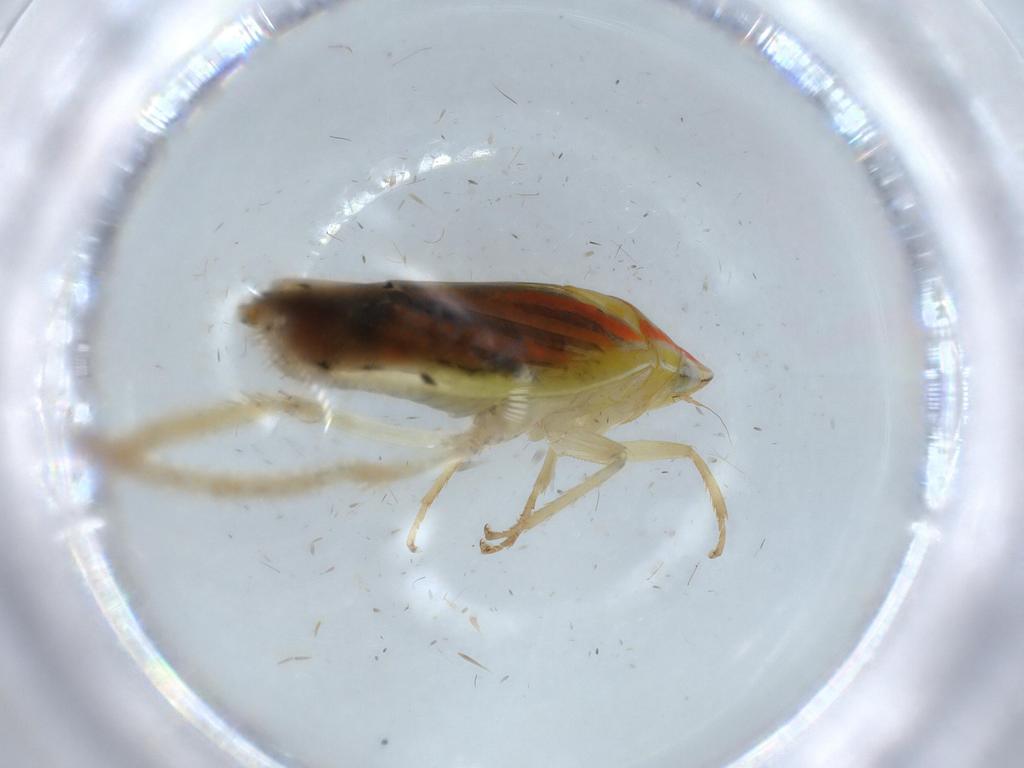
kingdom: Animalia
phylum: Arthropoda
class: Insecta
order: Hemiptera
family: Cicadellidae
